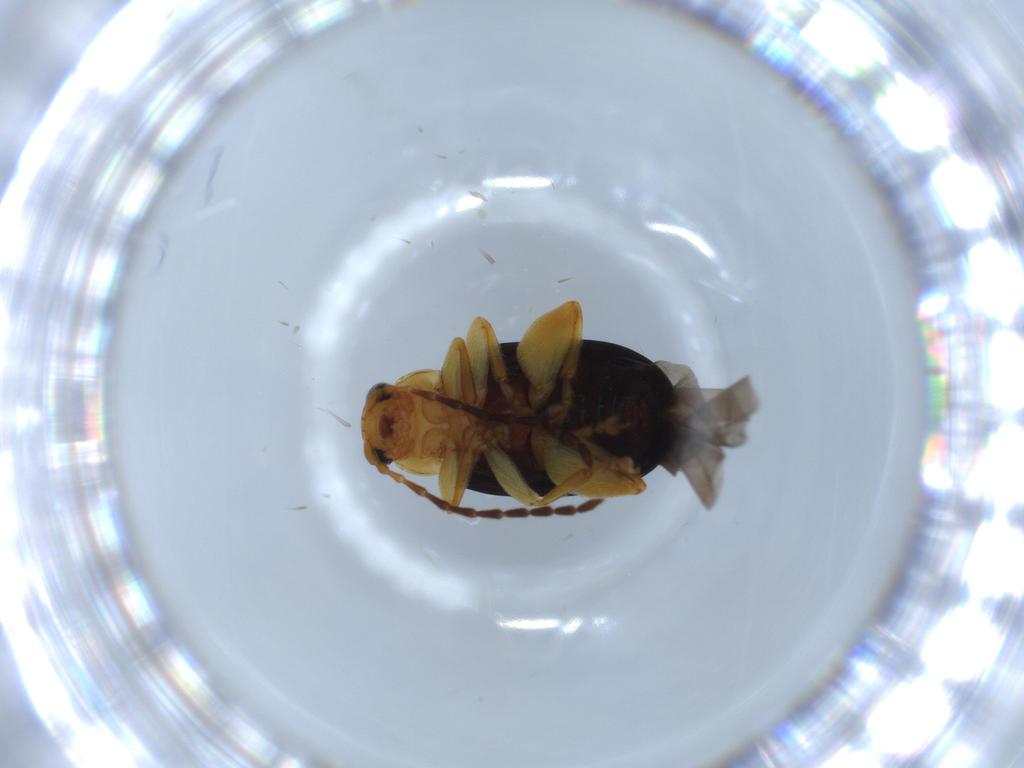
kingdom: Animalia
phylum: Arthropoda
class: Insecta
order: Coleoptera
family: Chrysomelidae
